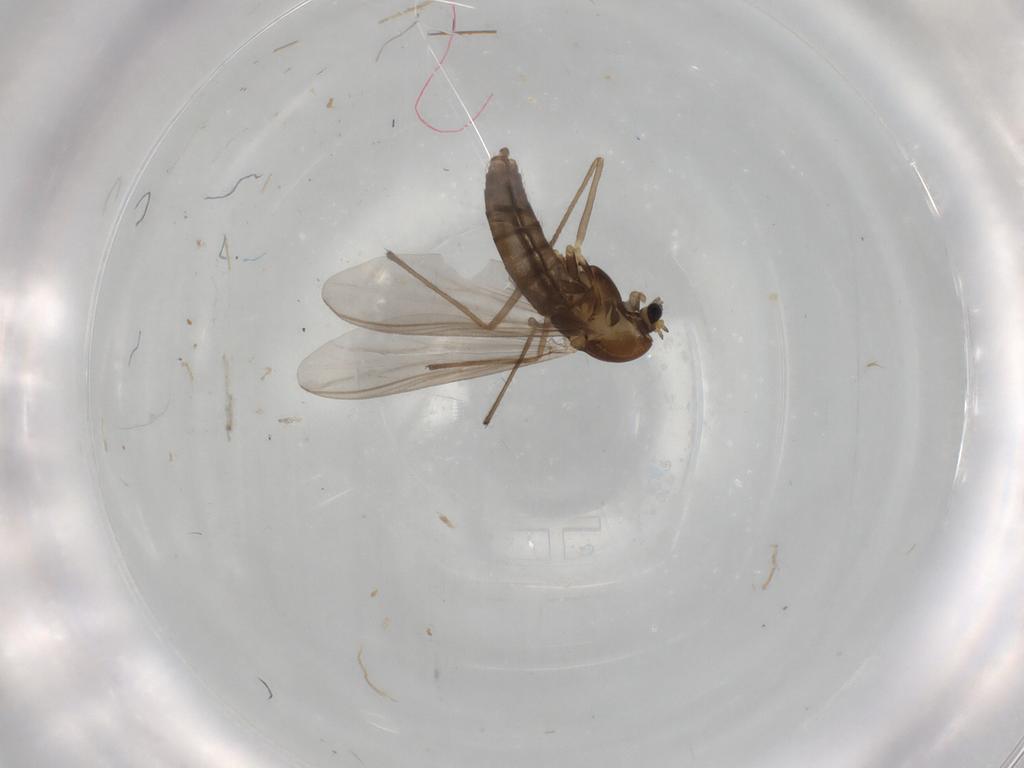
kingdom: Animalia
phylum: Arthropoda
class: Insecta
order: Diptera
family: Chironomidae
